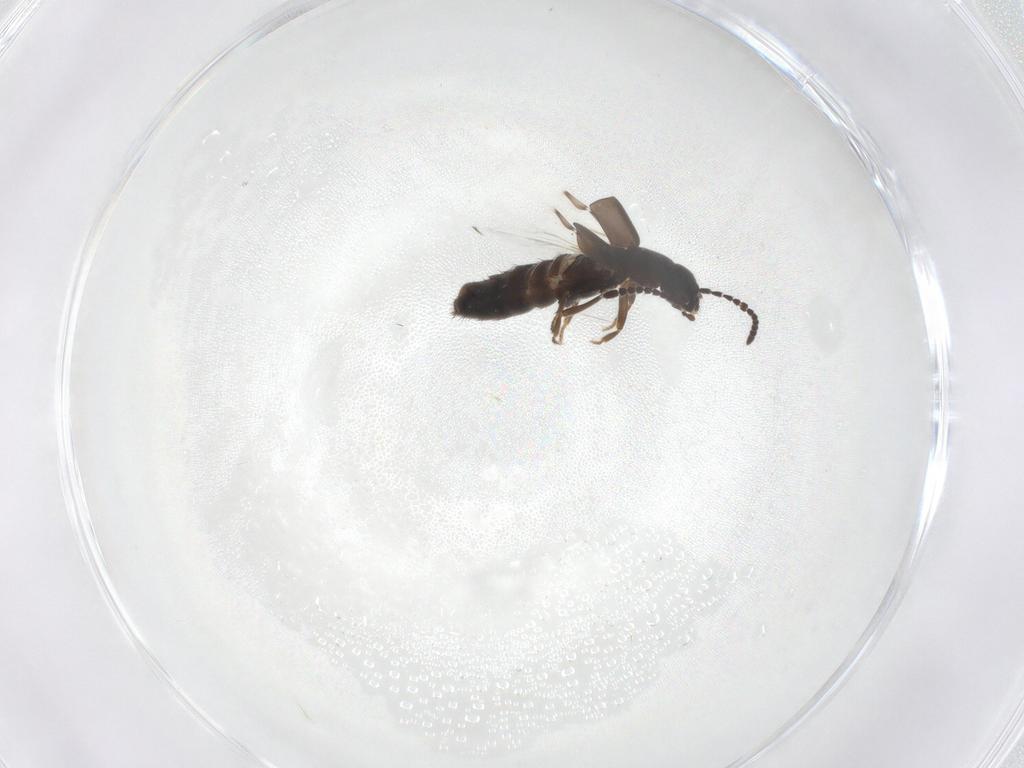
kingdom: Animalia
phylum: Arthropoda
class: Insecta
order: Coleoptera
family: Staphylinidae
